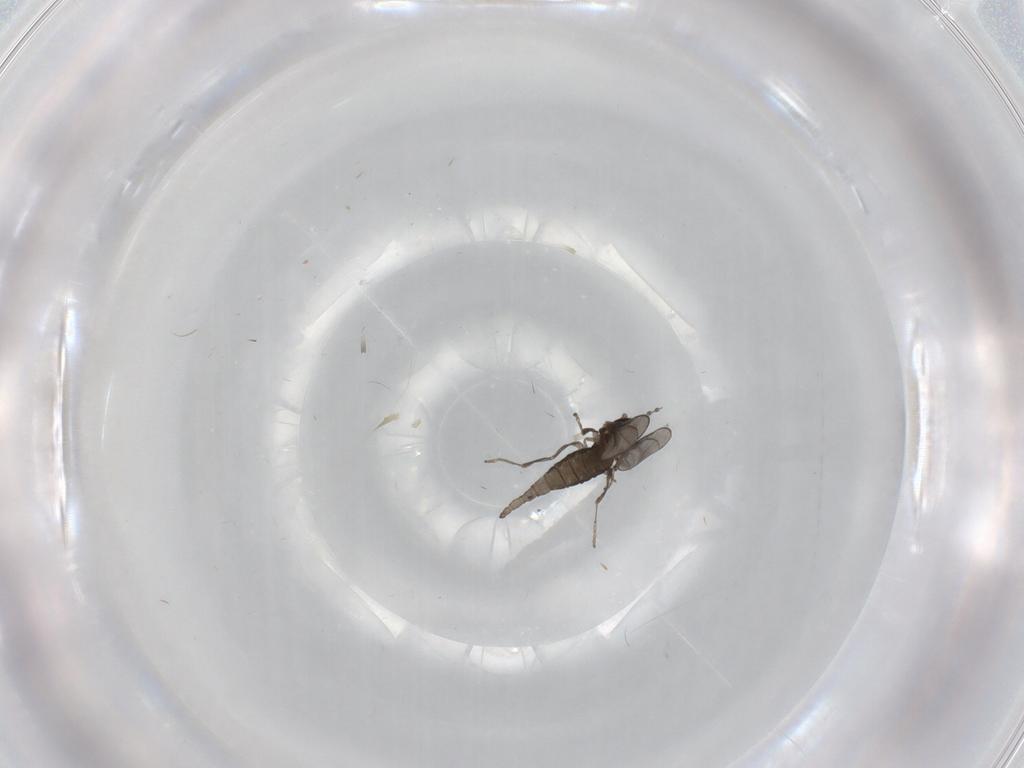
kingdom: Animalia
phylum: Arthropoda
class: Insecta
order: Diptera
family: Cecidomyiidae
